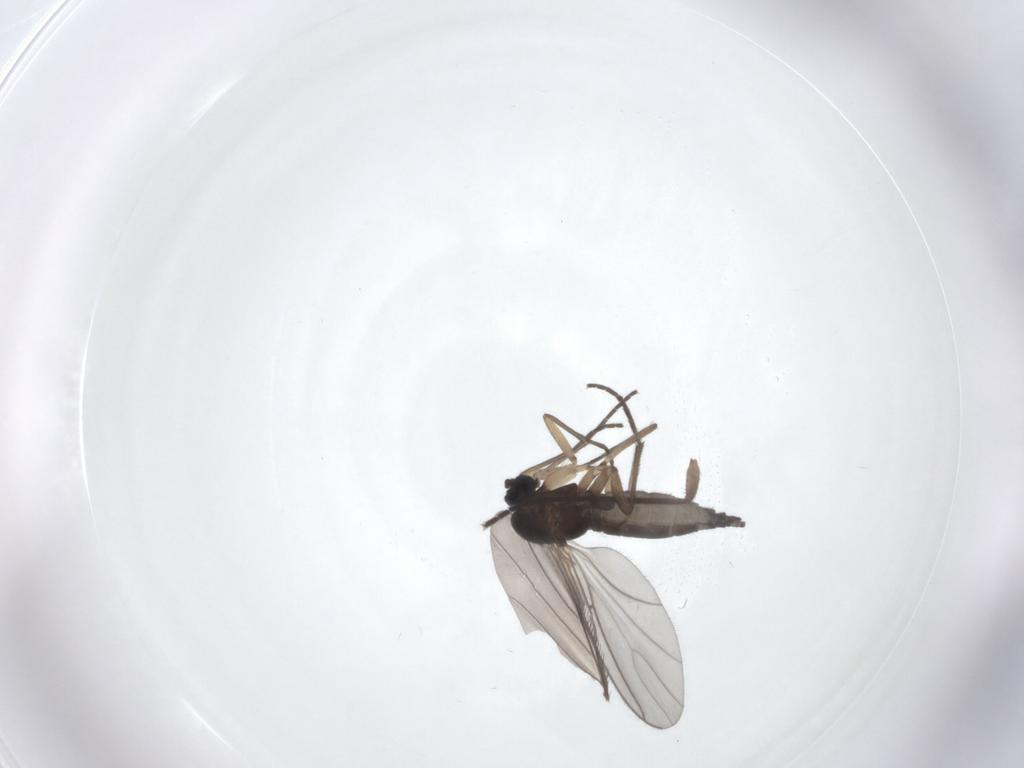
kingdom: Animalia
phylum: Arthropoda
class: Insecta
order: Diptera
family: Sciaridae
